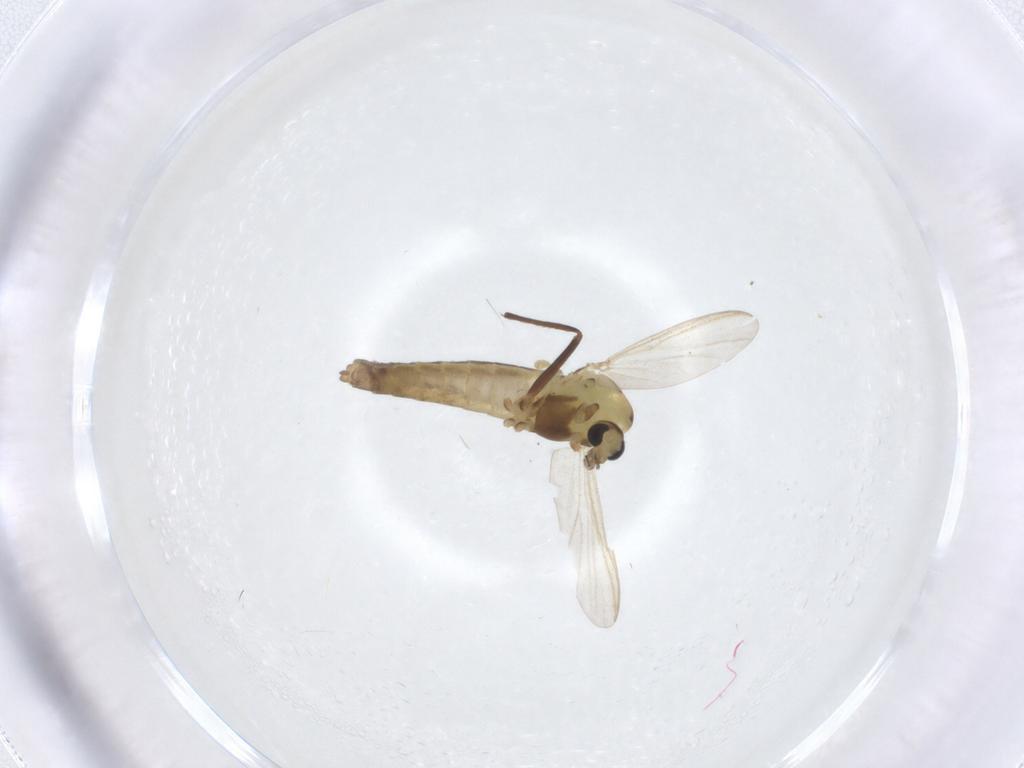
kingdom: Animalia
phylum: Arthropoda
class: Insecta
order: Diptera
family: Chironomidae
